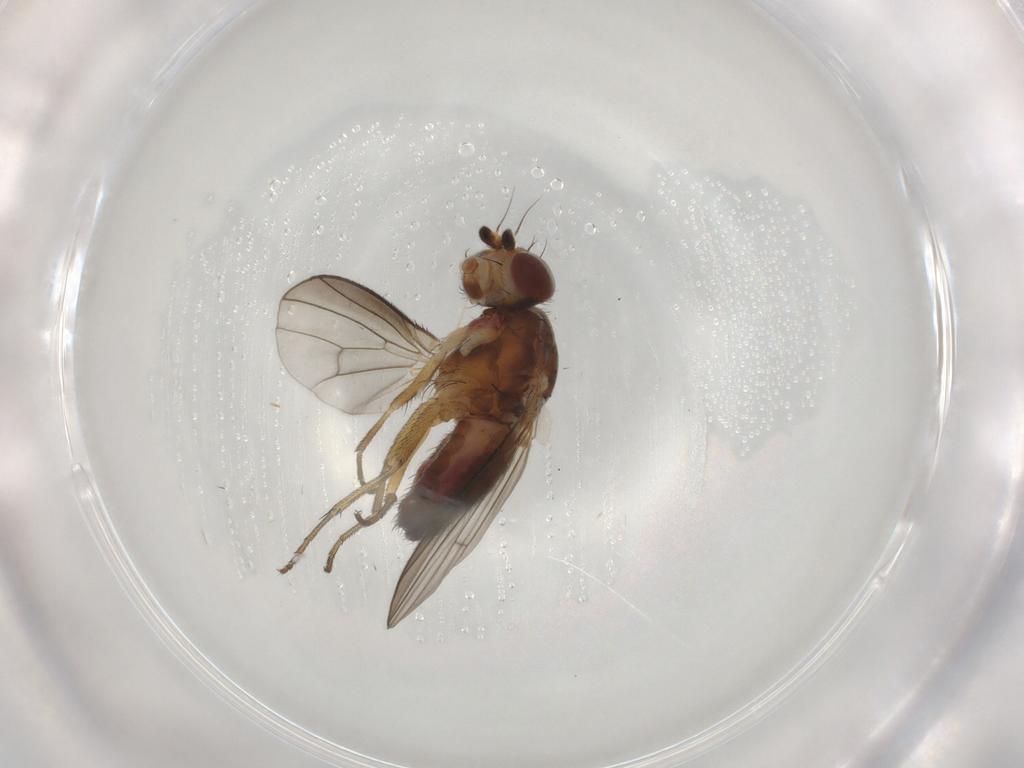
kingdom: Animalia
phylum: Arthropoda
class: Insecta
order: Diptera
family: Heleomyzidae
